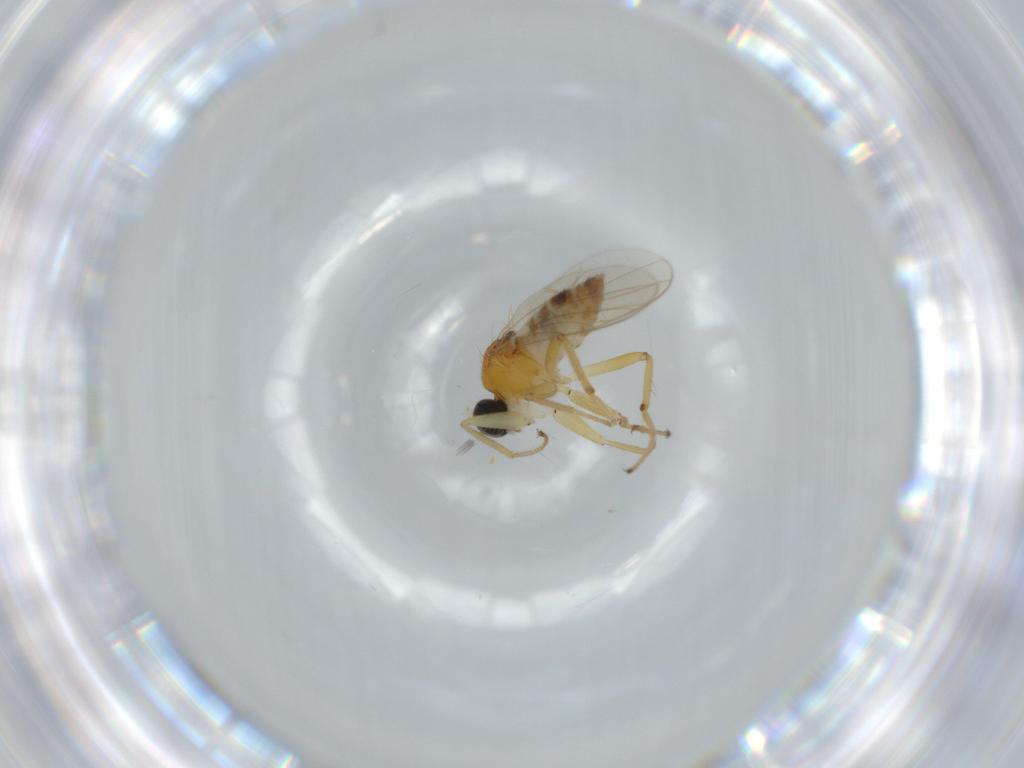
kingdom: Animalia
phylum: Arthropoda
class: Insecta
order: Diptera
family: Hybotidae
